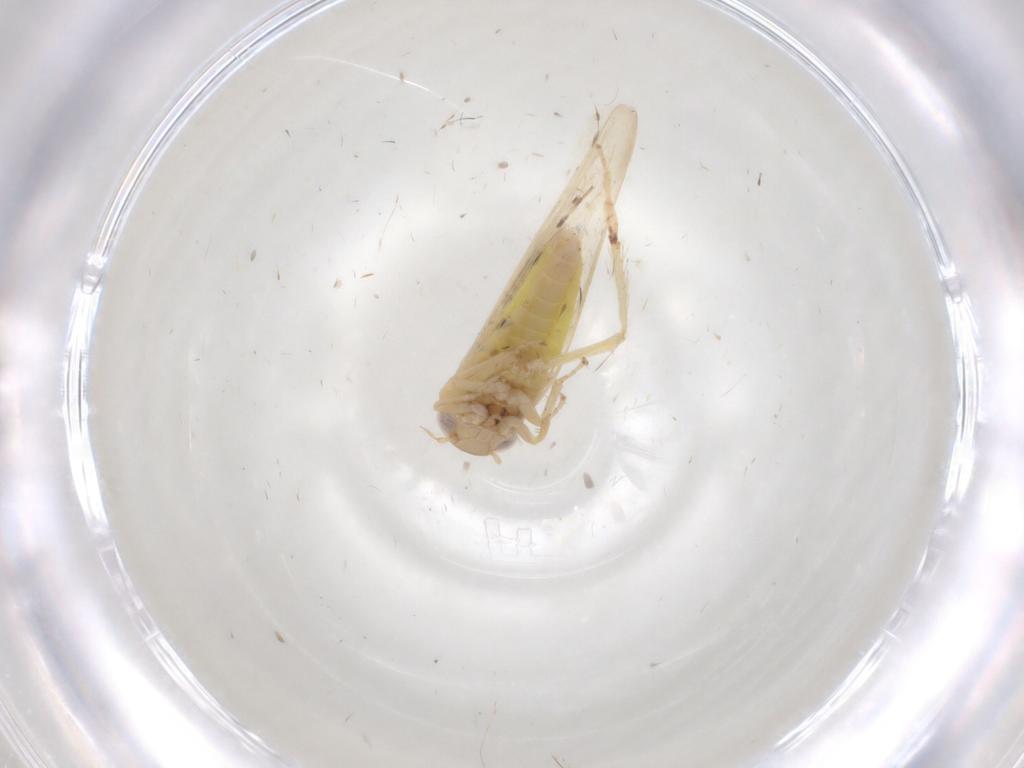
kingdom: Animalia
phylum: Arthropoda
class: Insecta
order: Hemiptera
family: Cicadellidae
